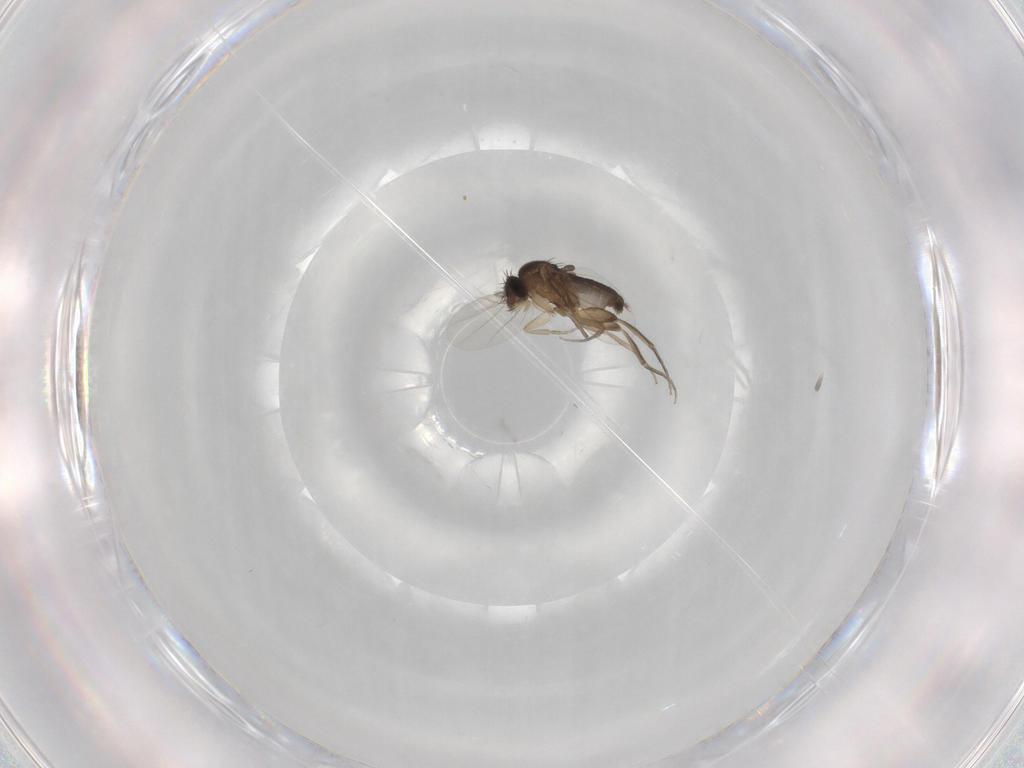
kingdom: Animalia
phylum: Arthropoda
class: Insecta
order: Diptera
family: Phoridae
